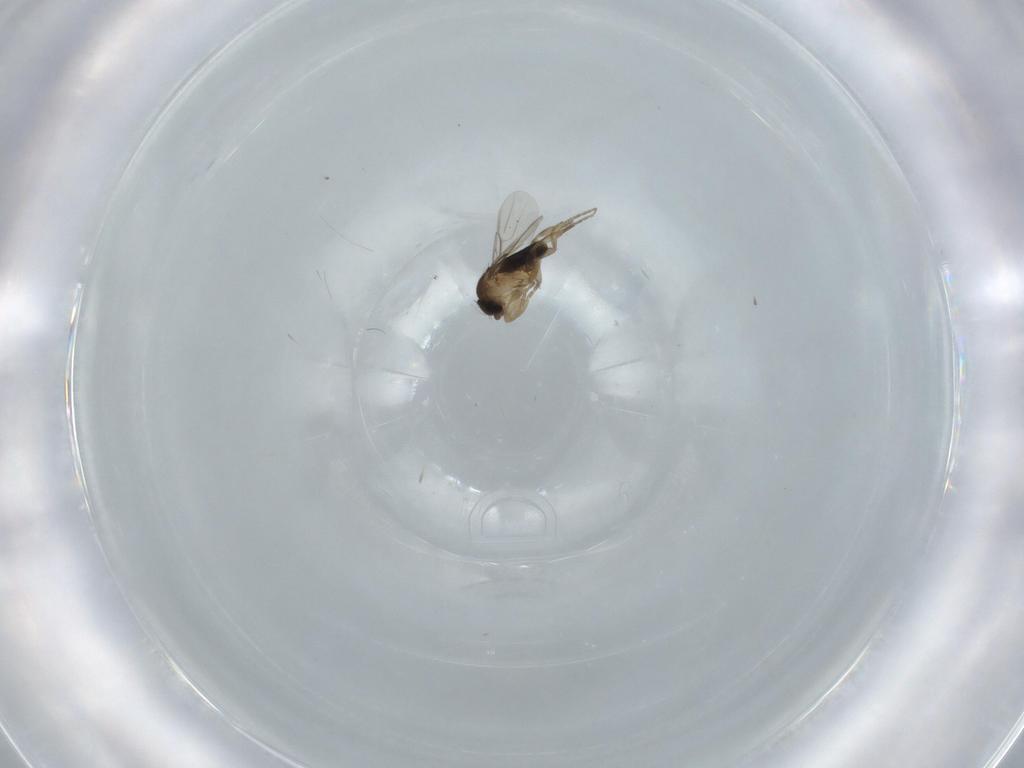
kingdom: Animalia
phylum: Arthropoda
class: Insecta
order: Diptera
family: Phoridae
